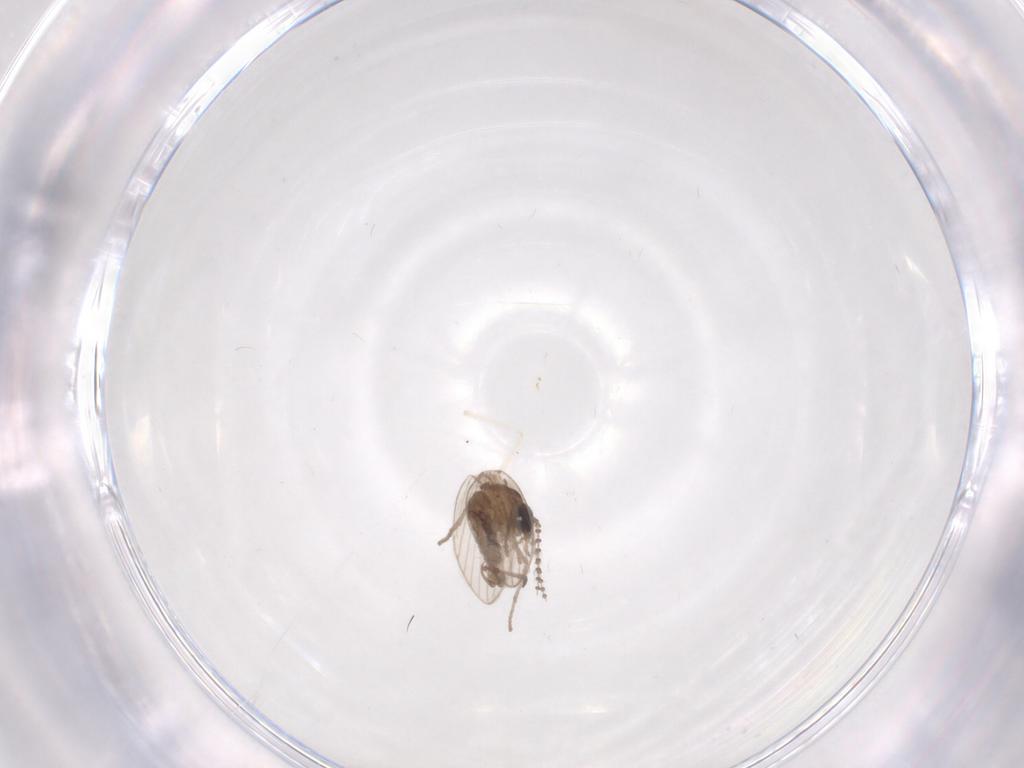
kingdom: Animalia
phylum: Arthropoda
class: Insecta
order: Diptera
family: Psychodidae
